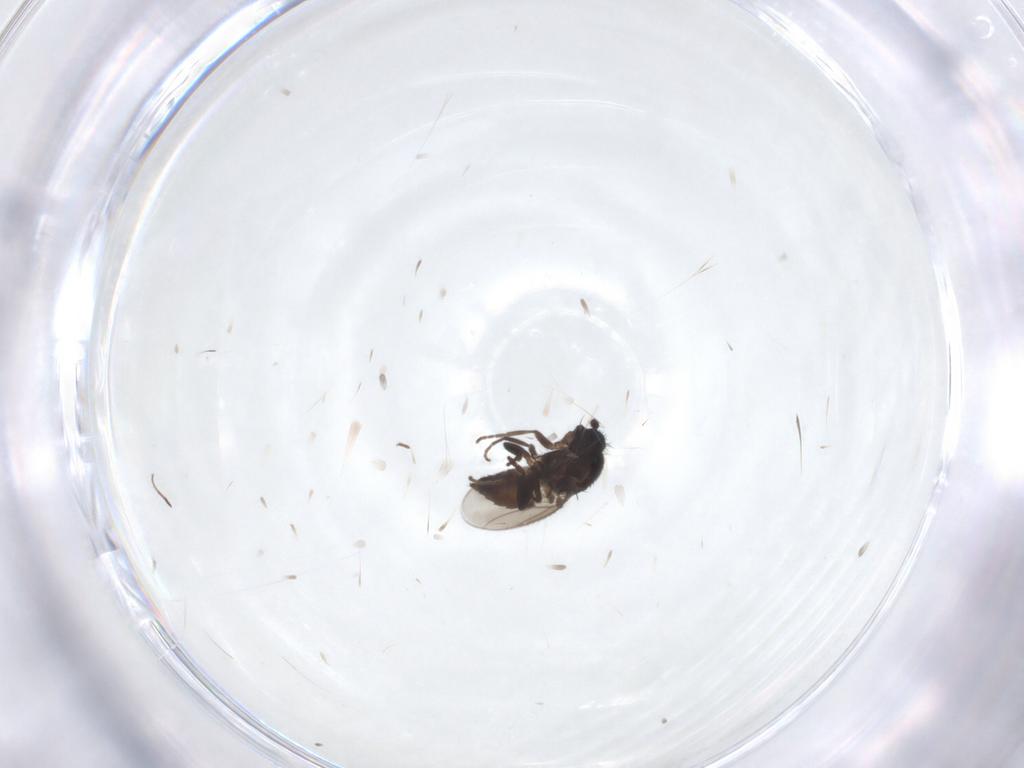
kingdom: Animalia
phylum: Arthropoda
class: Insecta
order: Diptera
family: Sphaeroceridae
